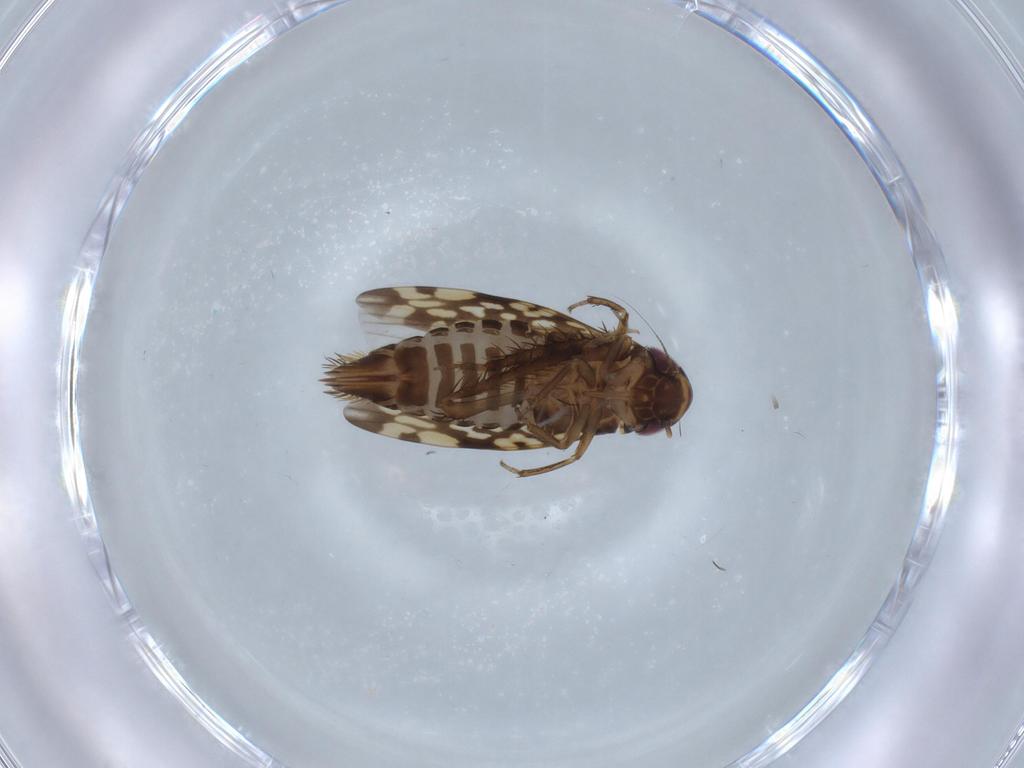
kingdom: Animalia
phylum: Arthropoda
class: Insecta
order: Hemiptera
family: Cicadellidae
